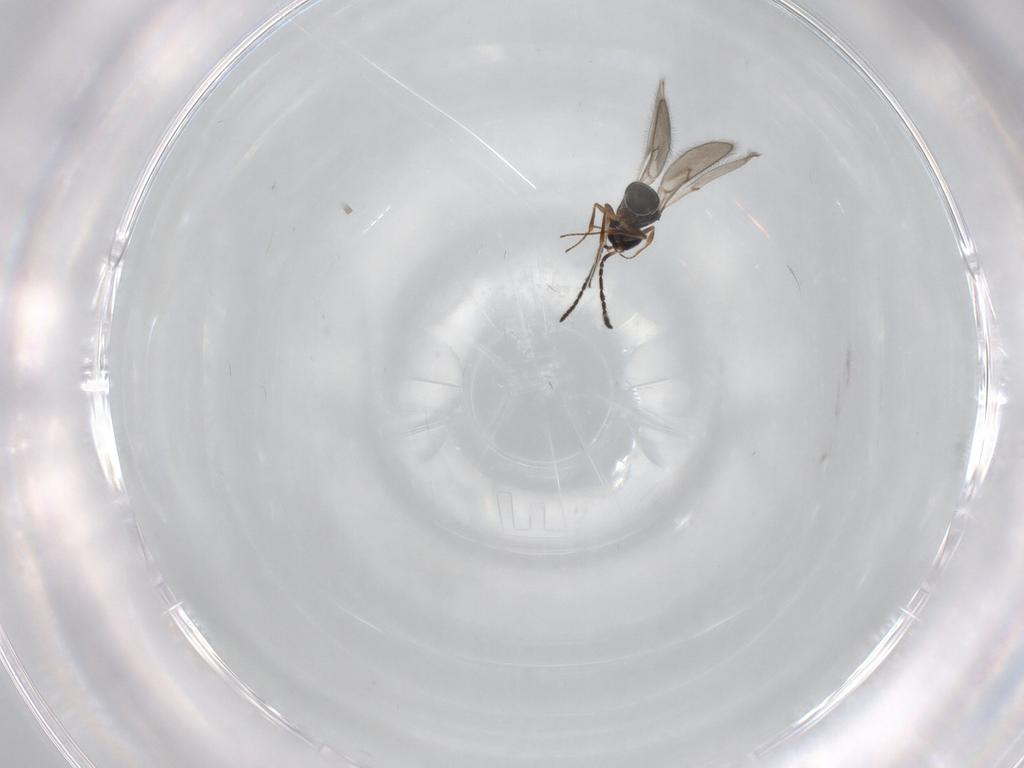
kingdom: Animalia
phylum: Arthropoda
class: Insecta
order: Hymenoptera
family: Scelionidae
